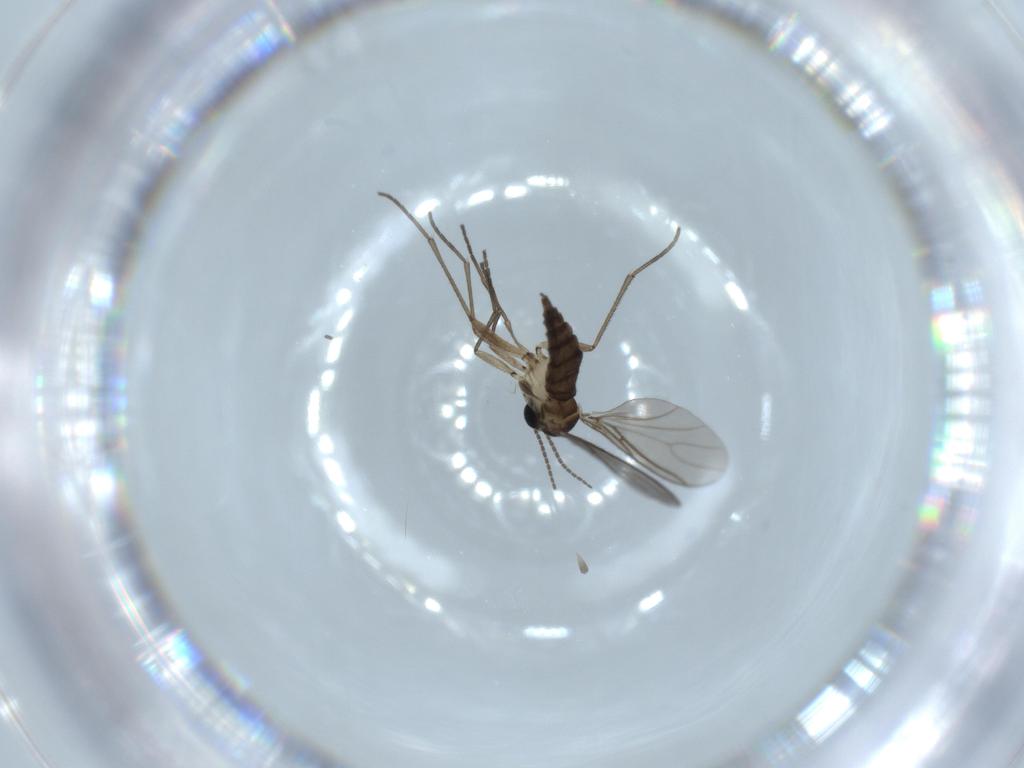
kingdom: Animalia
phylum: Arthropoda
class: Insecta
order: Diptera
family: Sciaridae
